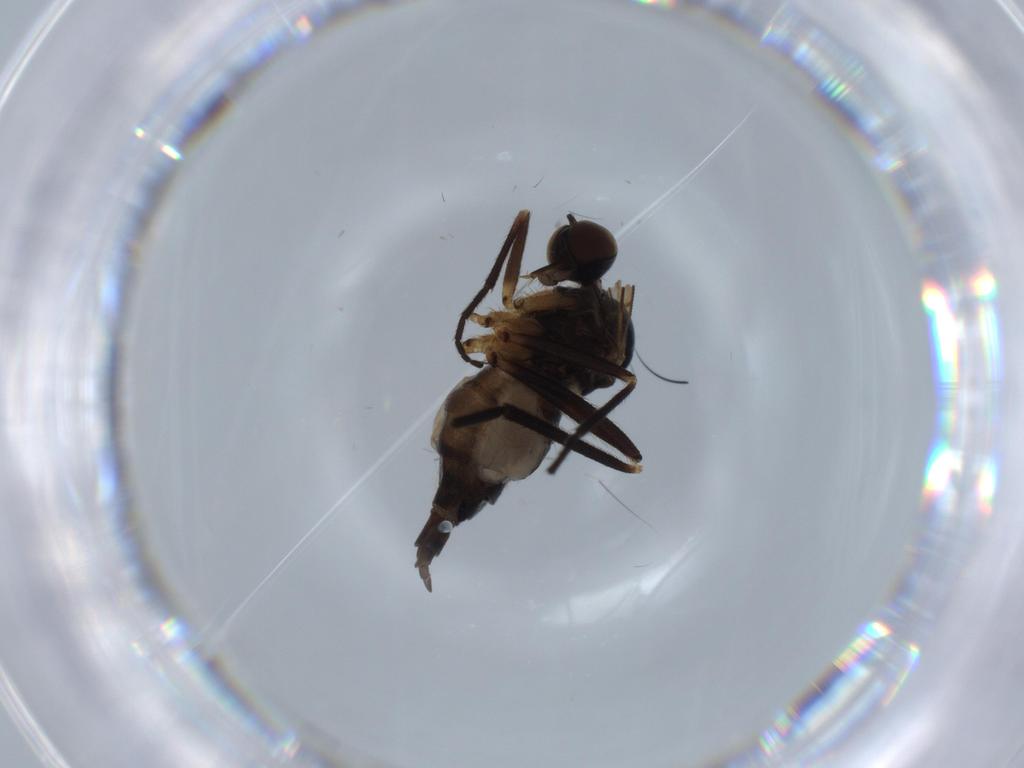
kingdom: Animalia
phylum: Arthropoda
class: Insecta
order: Diptera
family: Empididae
